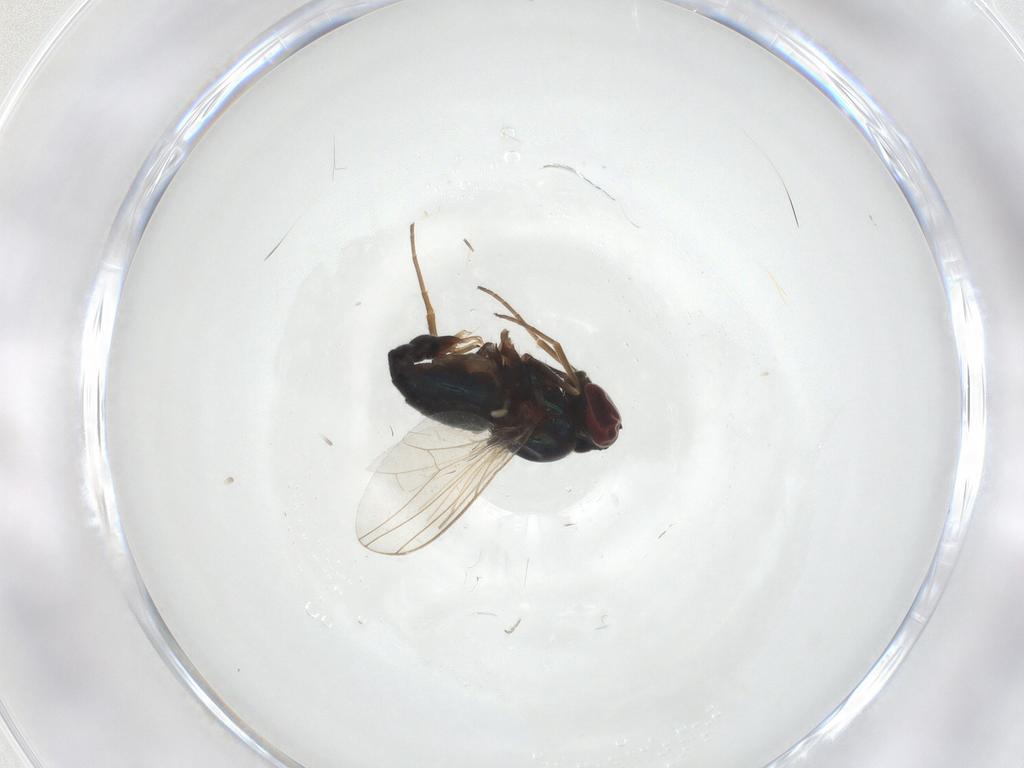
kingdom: Animalia
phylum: Arthropoda
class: Insecta
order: Diptera
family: Dolichopodidae
